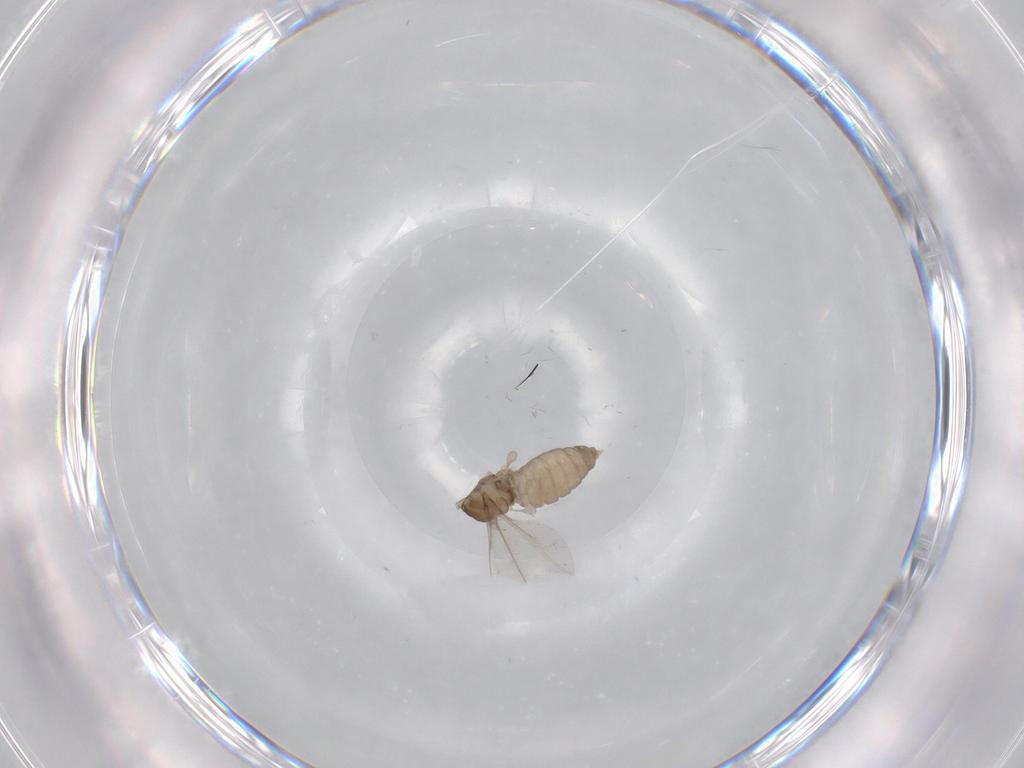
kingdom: Animalia
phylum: Arthropoda
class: Insecta
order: Diptera
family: Cecidomyiidae
